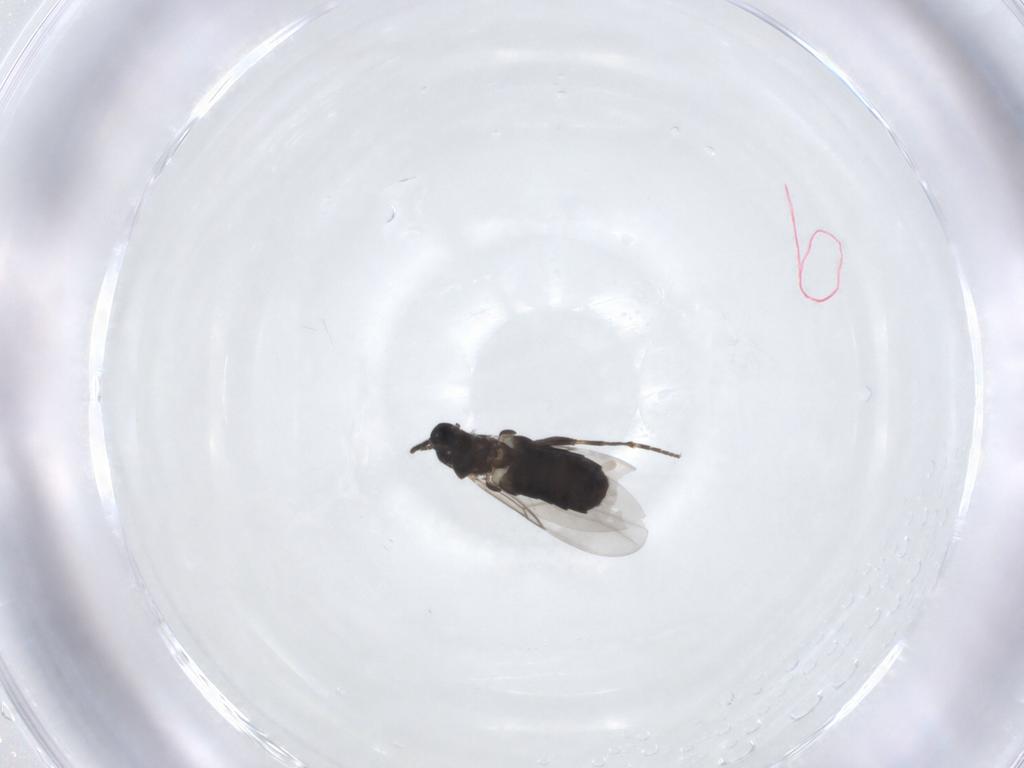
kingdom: Animalia
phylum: Arthropoda
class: Insecta
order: Diptera
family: Scatopsidae
